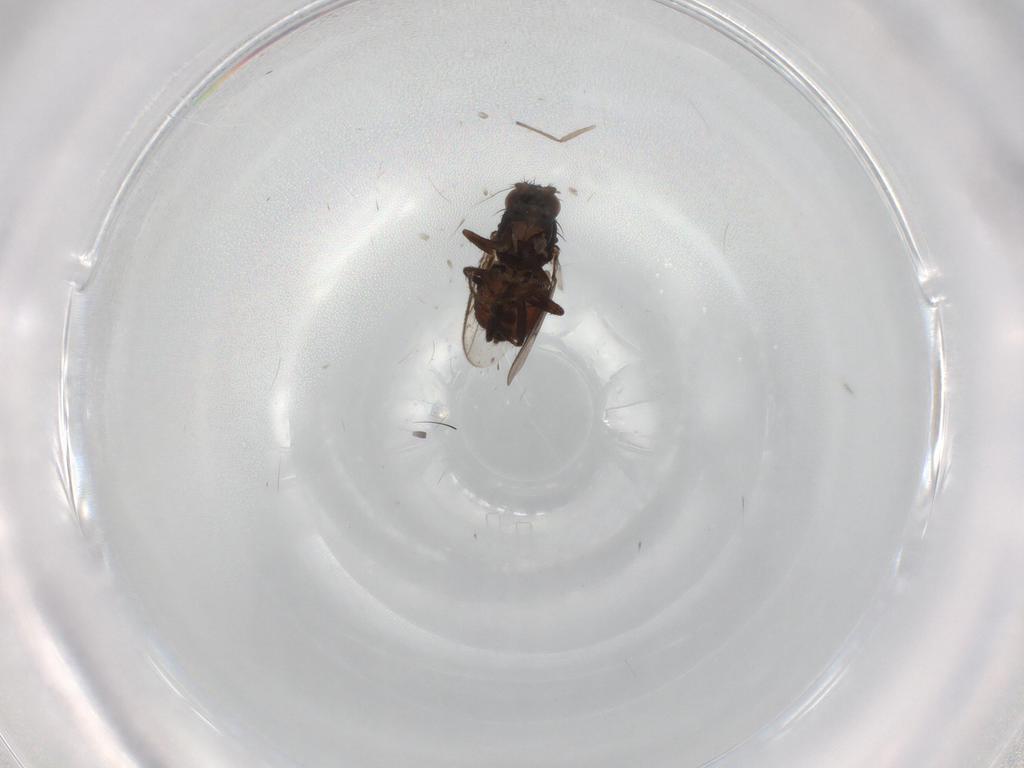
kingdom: Animalia
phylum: Arthropoda
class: Insecta
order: Diptera
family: Sphaeroceridae
